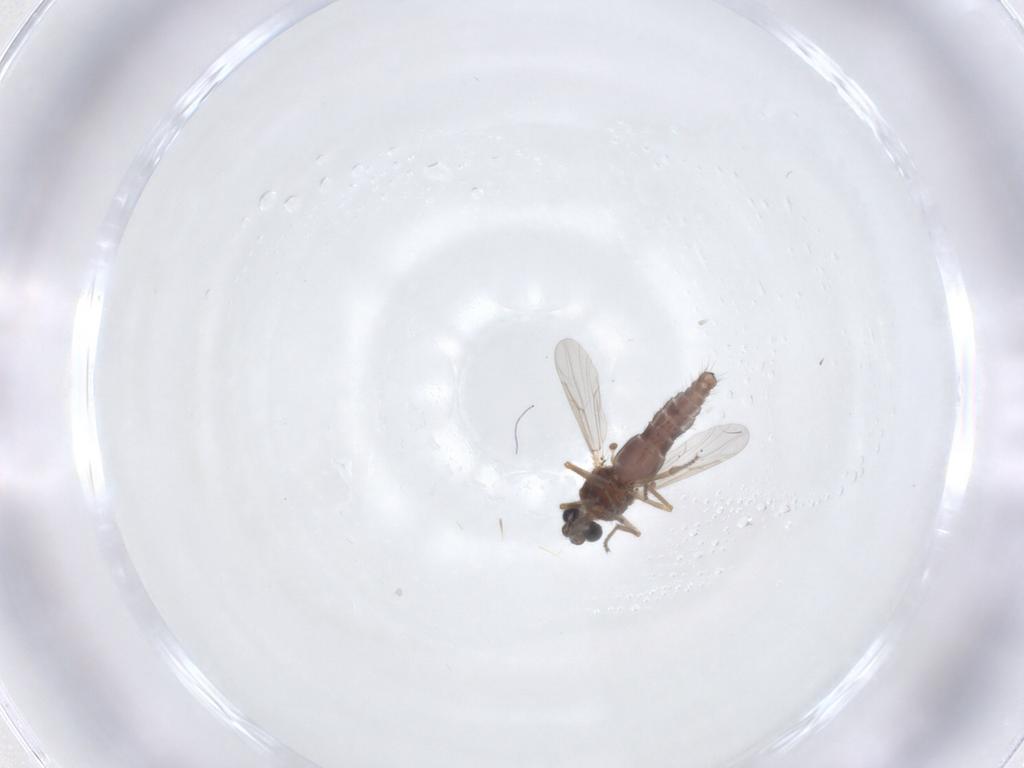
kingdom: Animalia
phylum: Arthropoda
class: Insecta
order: Diptera
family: Ceratopogonidae
